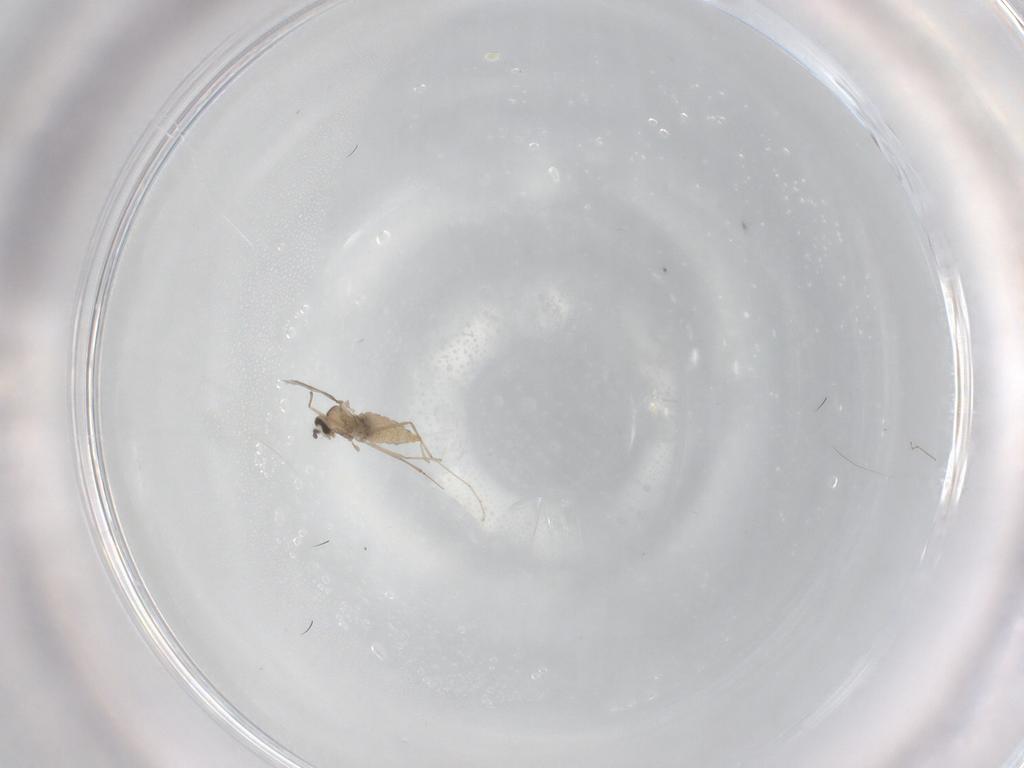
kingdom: Animalia
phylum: Arthropoda
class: Insecta
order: Diptera
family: Cecidomyiidae
